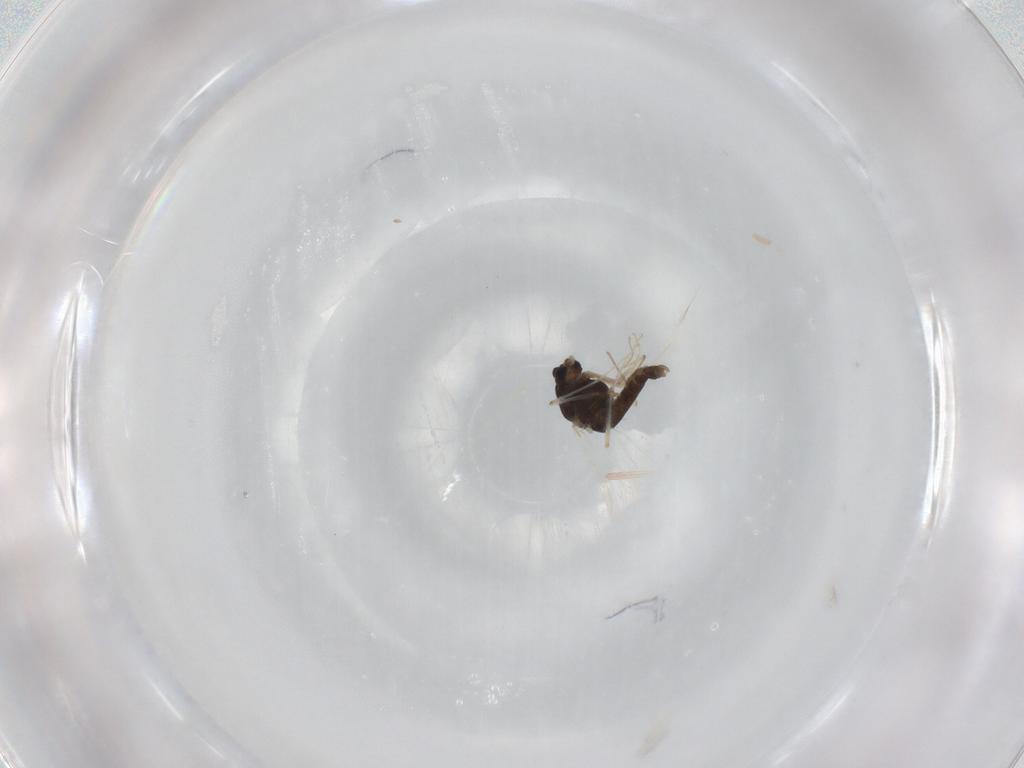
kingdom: Animalia
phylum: Arthropoda
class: Insecta
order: Diptera
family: Chironomidae
